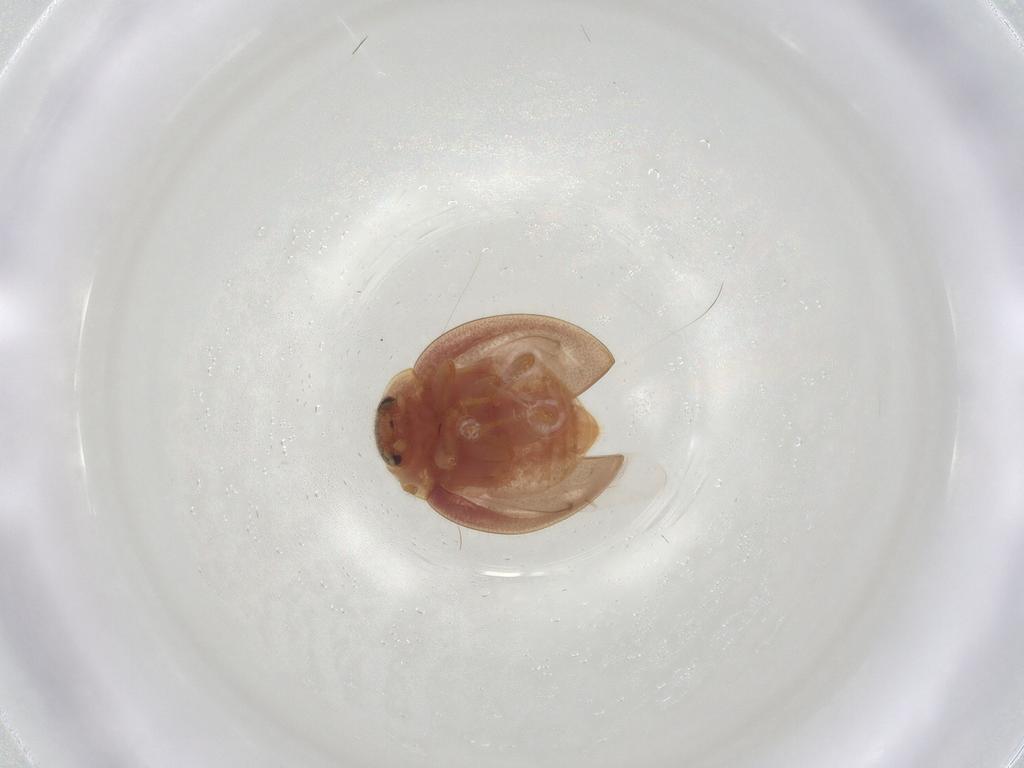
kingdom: Animalia
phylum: Arthropoda
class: Insecta
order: Coleoptera
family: Coccinellidae
